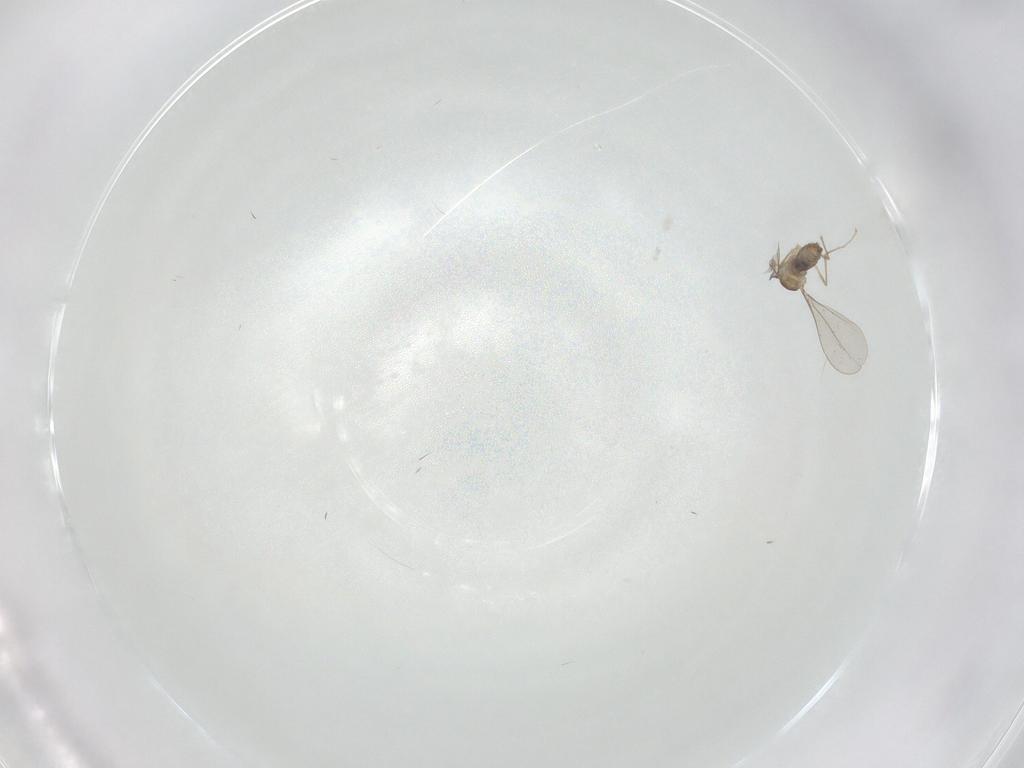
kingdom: Animalia
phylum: Arthropoda
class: Insecta
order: Diptera
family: Cecidomyiidae
